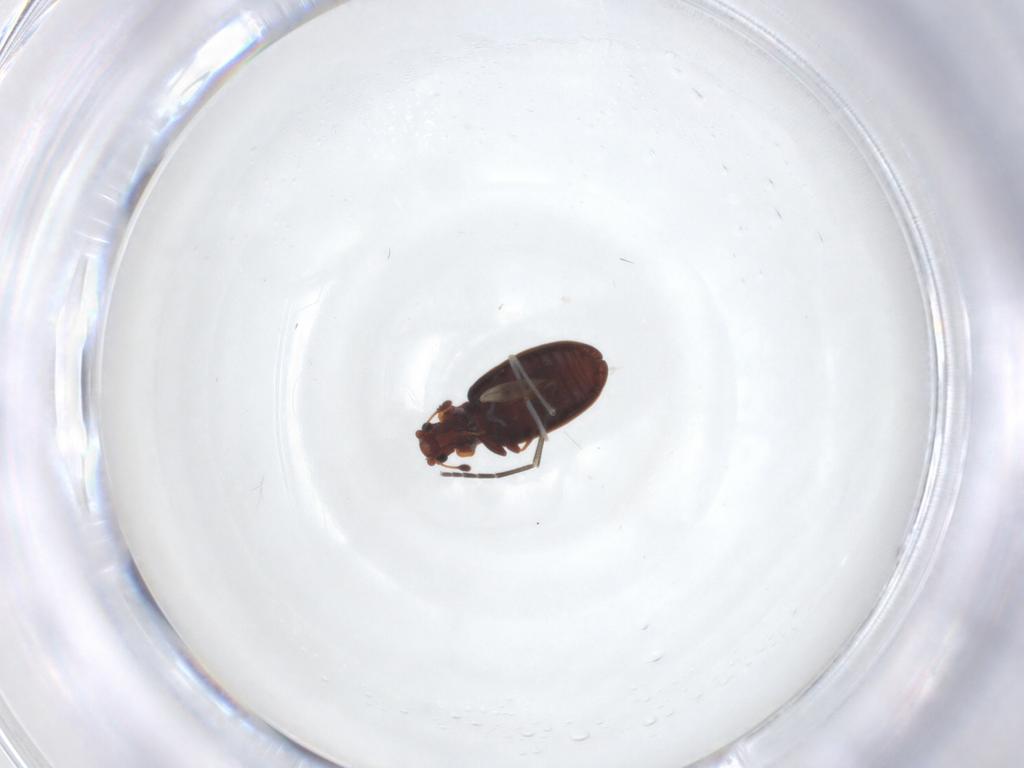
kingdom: Animalia
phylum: Arthropoda
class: Insecta
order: Coleoptera
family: Latridiidae
